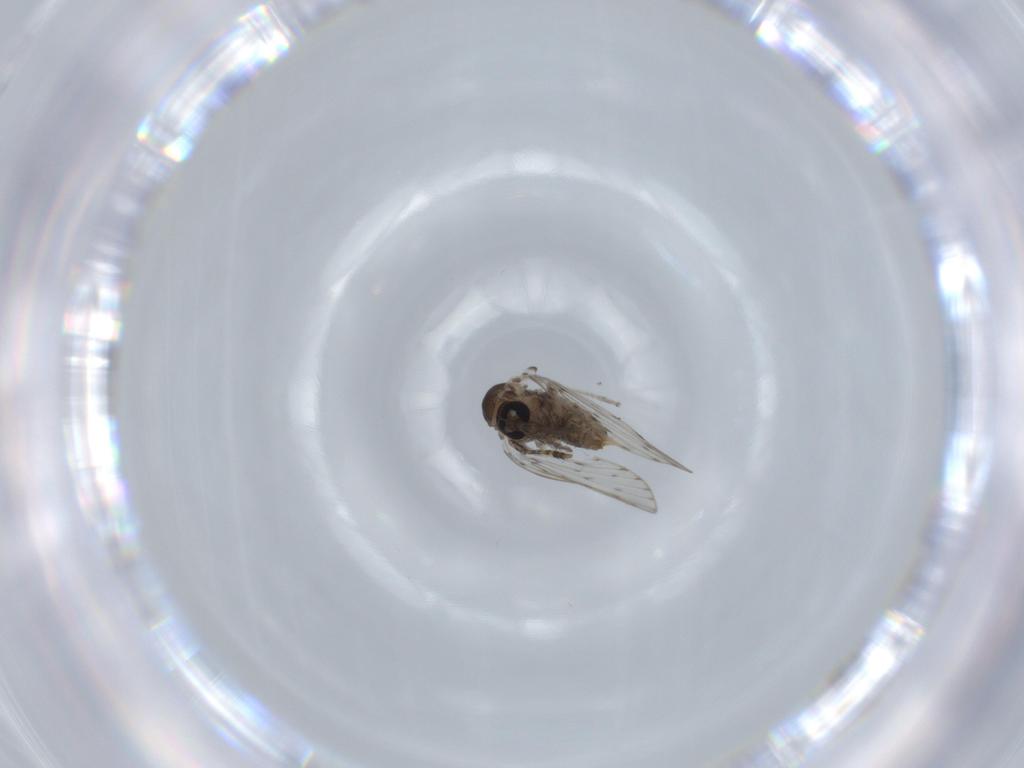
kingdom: Animalia
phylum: Arthropoda
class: Insecta
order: Diptera
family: Psychodidae
